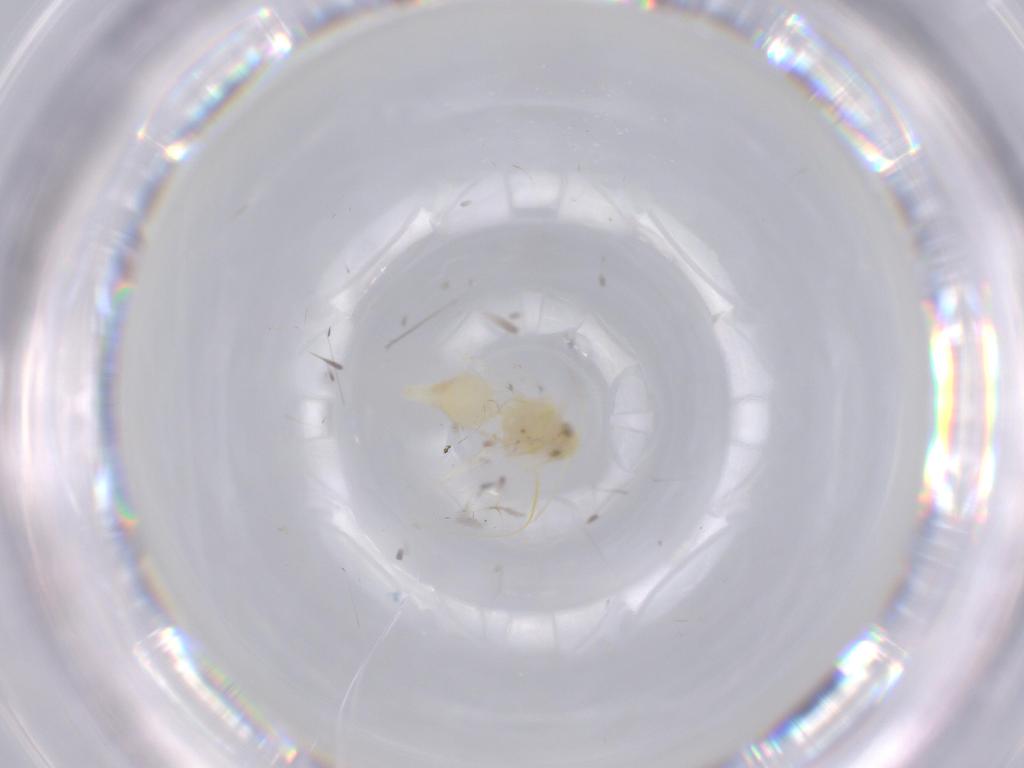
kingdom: Animalia
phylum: Arthropoda
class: Insecta
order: Hemiptera
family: Aleyrodidae
